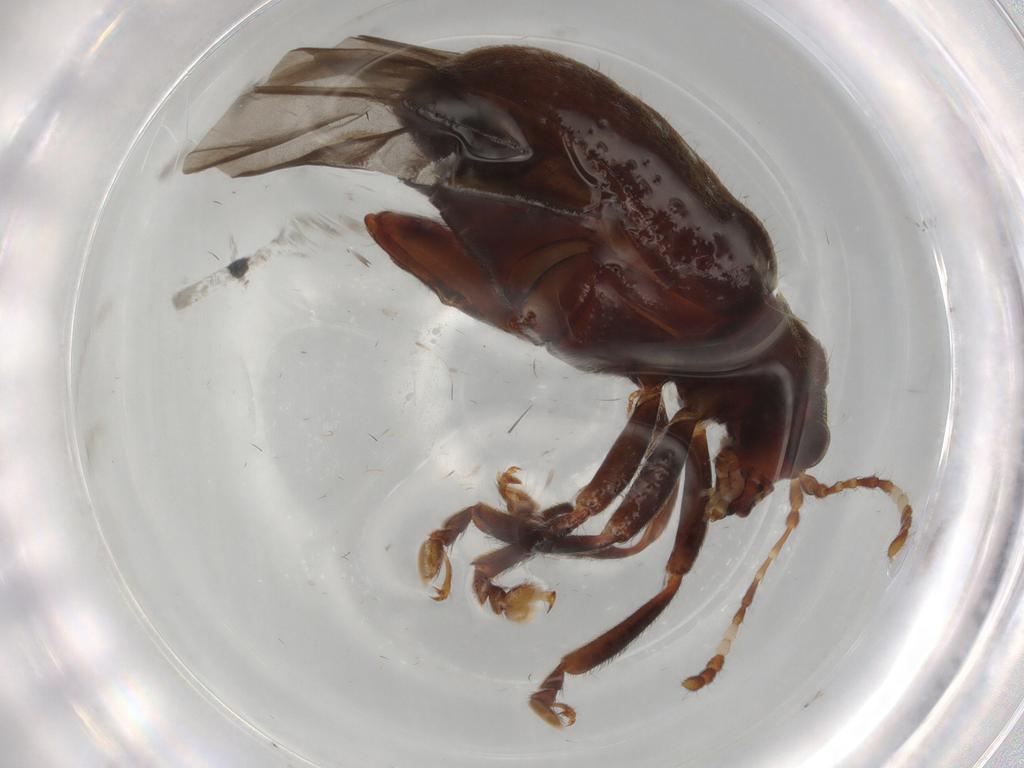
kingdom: Animalia
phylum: Arthropoda
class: Insecta
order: Coleoptera
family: Chrysomelidae
